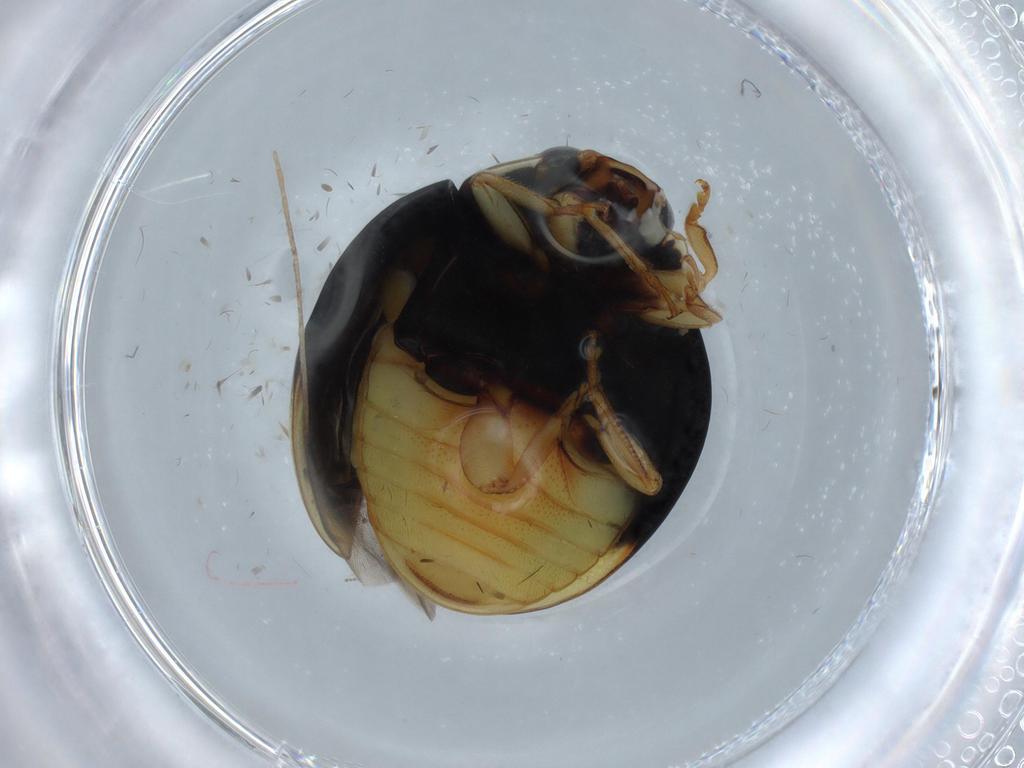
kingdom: Animalia
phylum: Arthropoda
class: Insecta
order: Coleoptera
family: Coccinellidae
